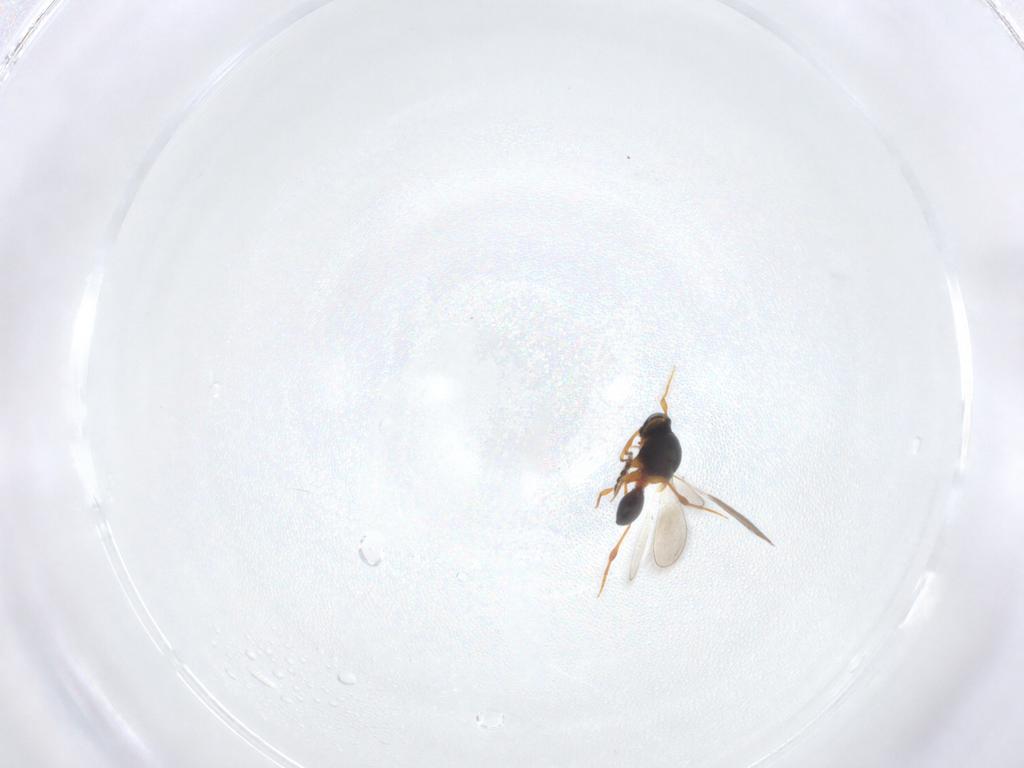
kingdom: Animalia
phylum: Arthropoda
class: Insecta
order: Hymenoptera
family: Platygastridae
